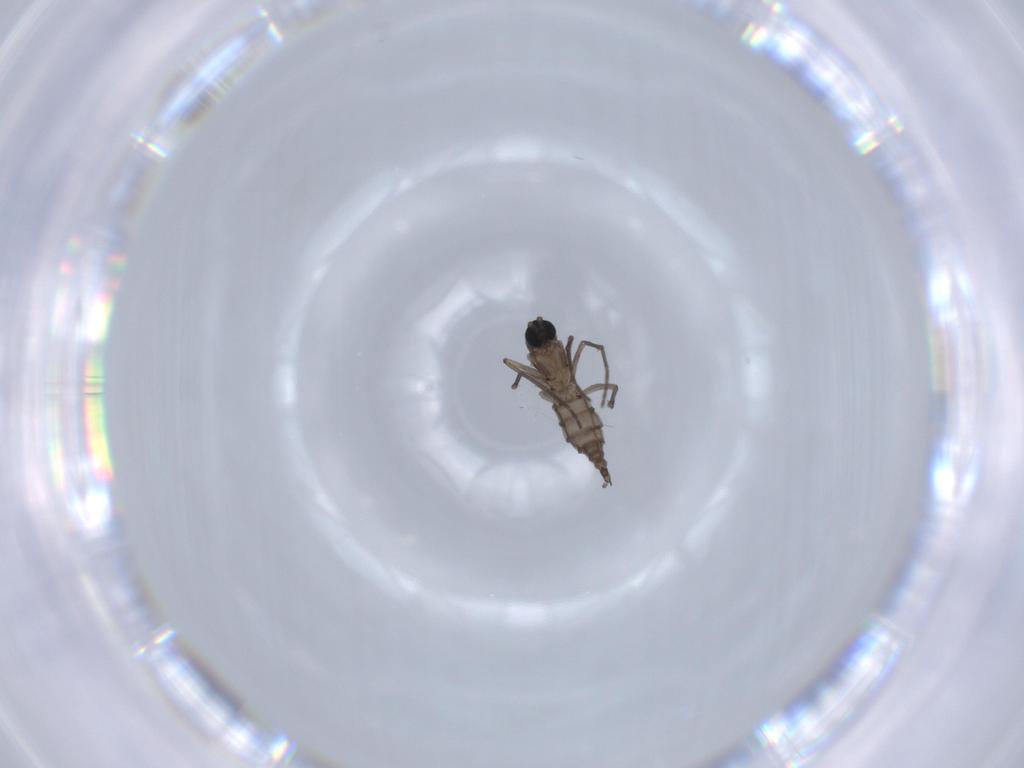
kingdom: Animalia
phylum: Arthropoda
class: Insecta
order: Diptera
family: Sciaridae
